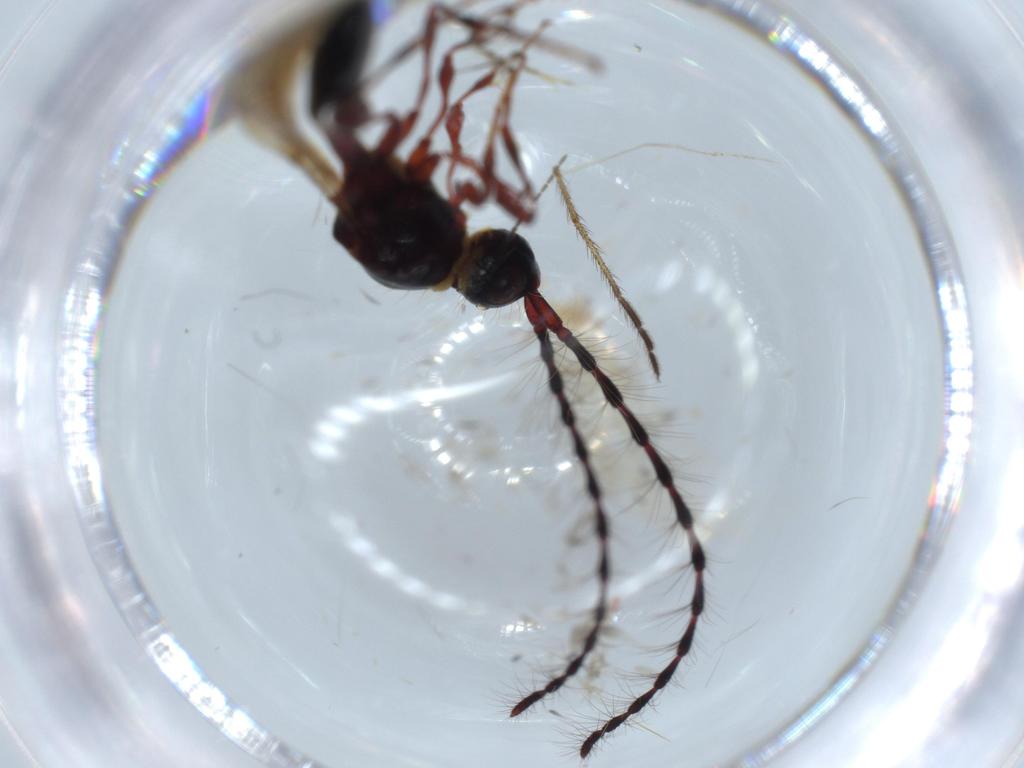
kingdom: Animalia
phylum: Arthropoda
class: Insecta
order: Hymenoptera
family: Diapriidae
